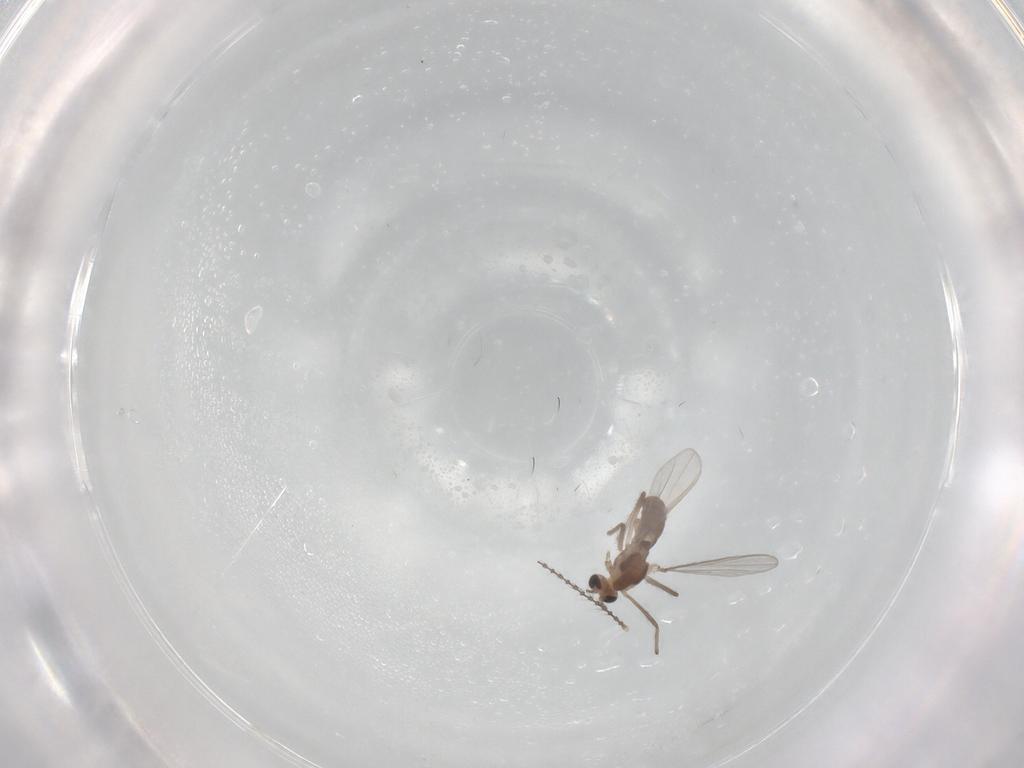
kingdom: Animalia
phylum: Arthropoda
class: Insecta
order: Diptera
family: Chironomidae
